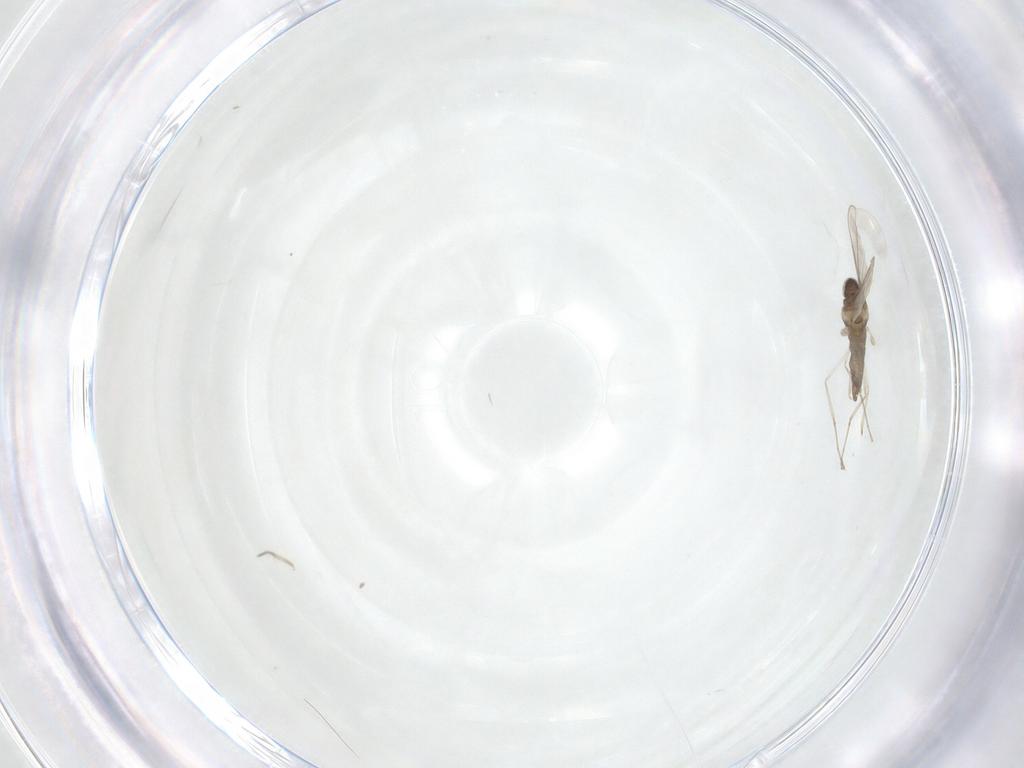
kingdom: Animalia
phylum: Arthropoda
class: Insecta
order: Diptera
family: Cecidomyiidae
